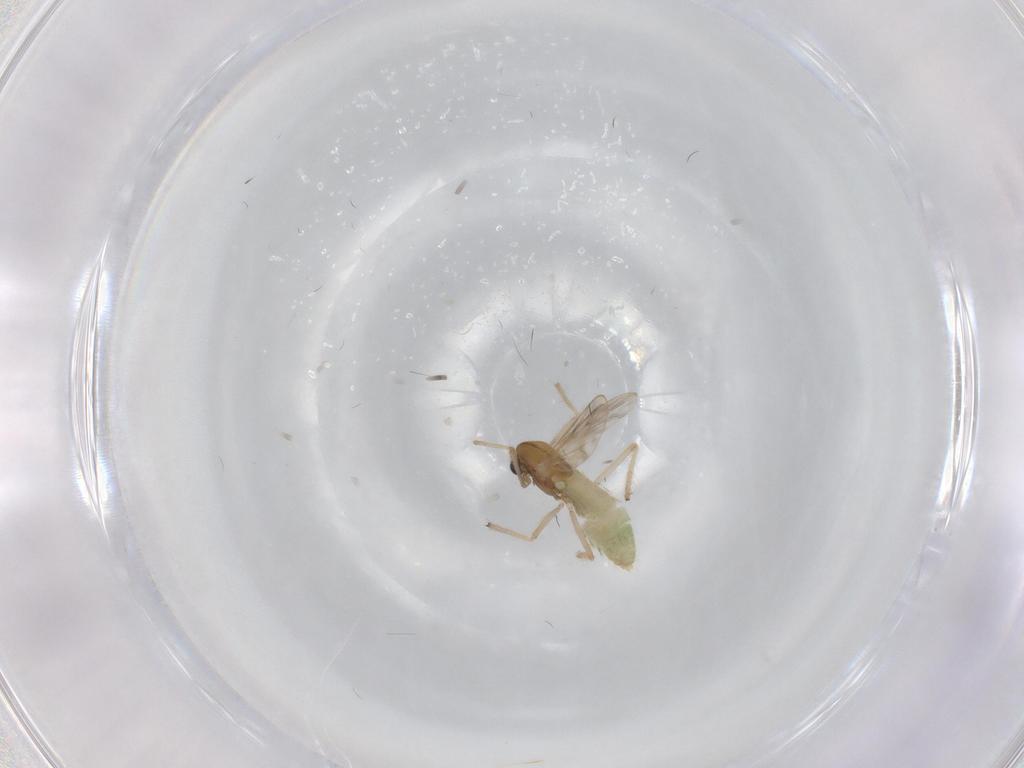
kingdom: Animalia
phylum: Arthropoda
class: Insecta
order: Diptera
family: Chironomidae
